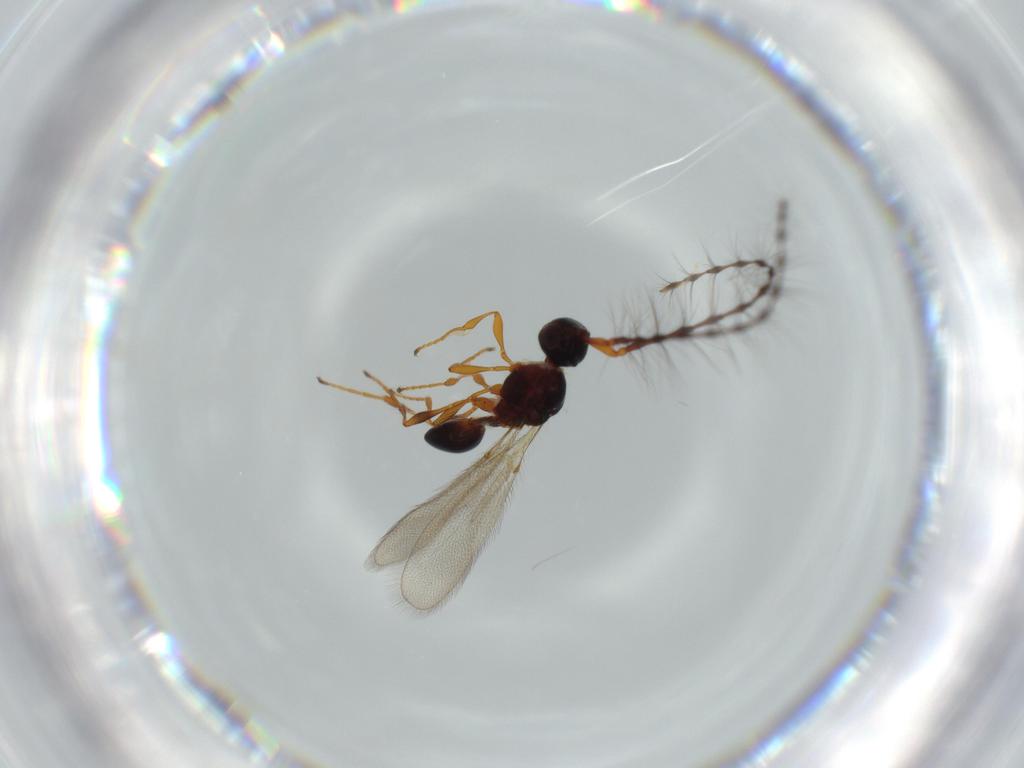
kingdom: Animalia
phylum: Arthropoda
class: Insecta
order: Hymenoptera
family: Diapriidae
